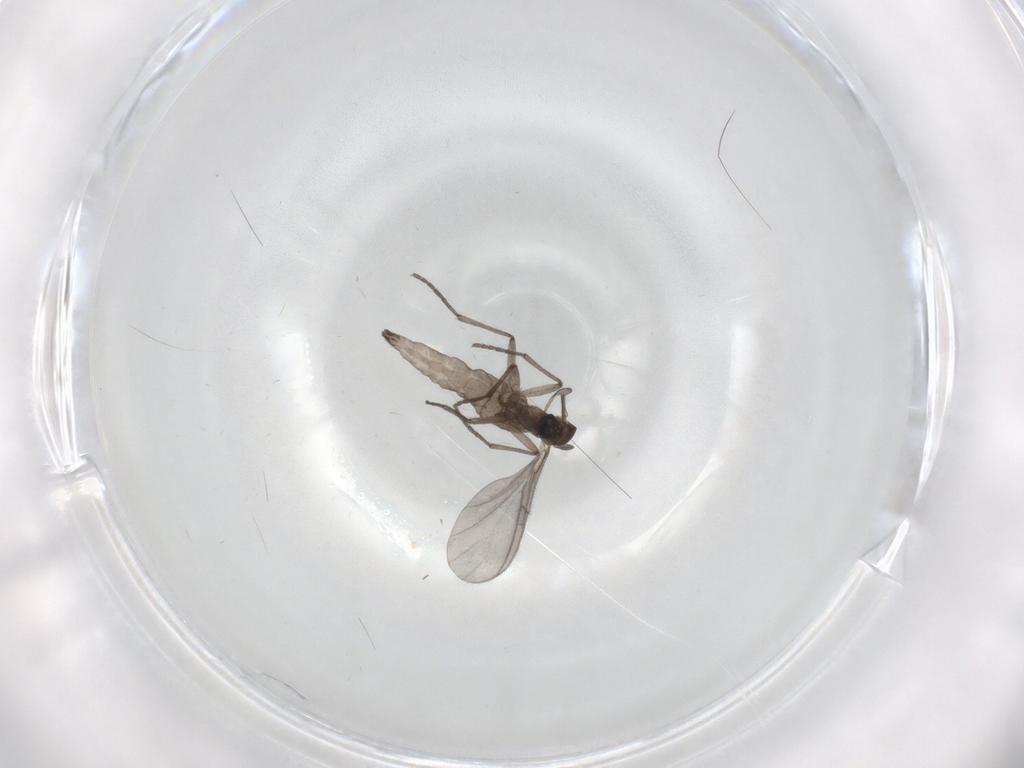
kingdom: Animalia
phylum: Arthropoda
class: Insecta
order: Diptera
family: Sciaridae
